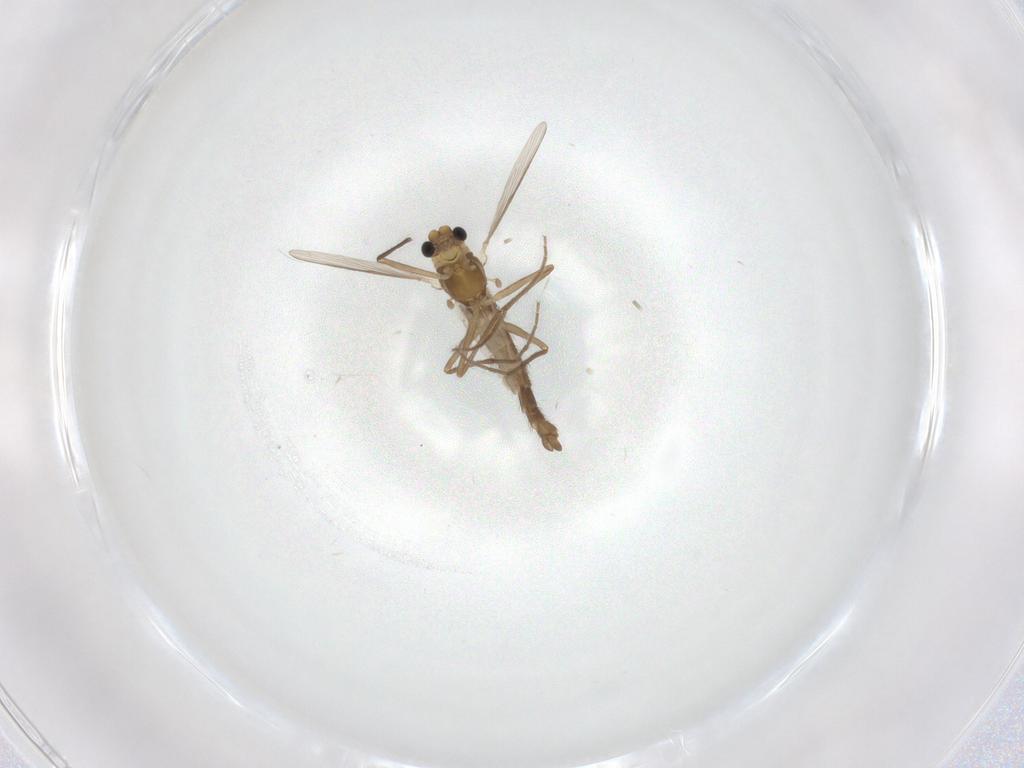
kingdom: Animalia
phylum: Arthropoda
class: Insecta
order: Diptera
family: Chironomidae
